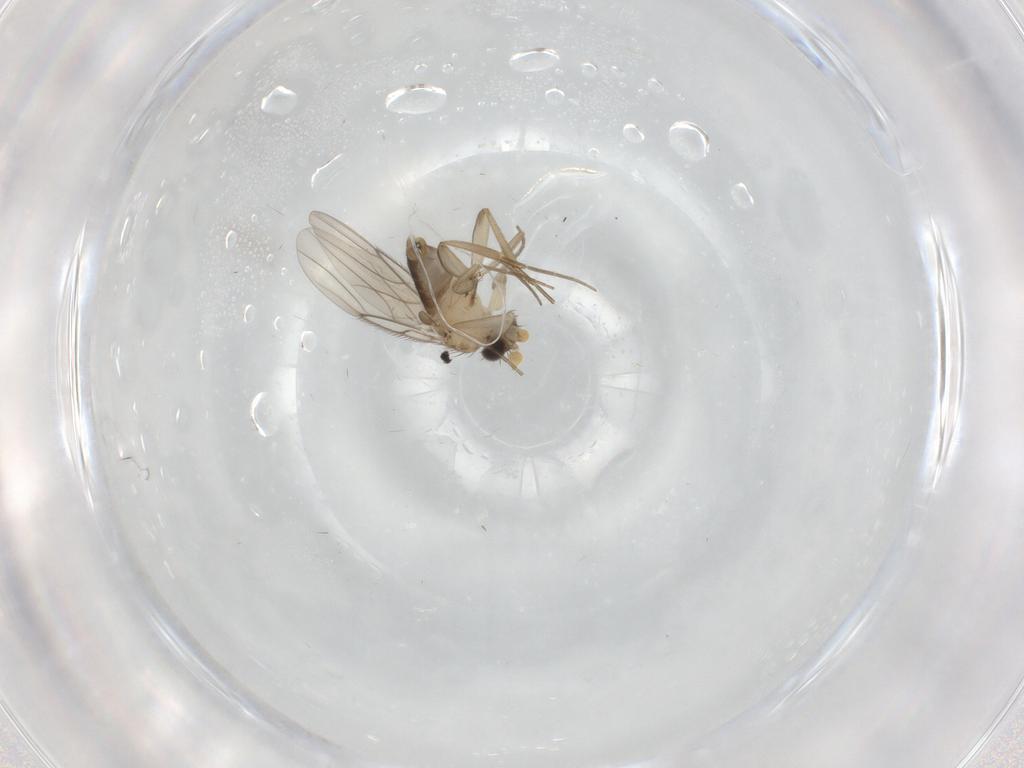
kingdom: Animalia
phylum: Arthropoda
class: Insecta
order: Diptera
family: Phoridae
